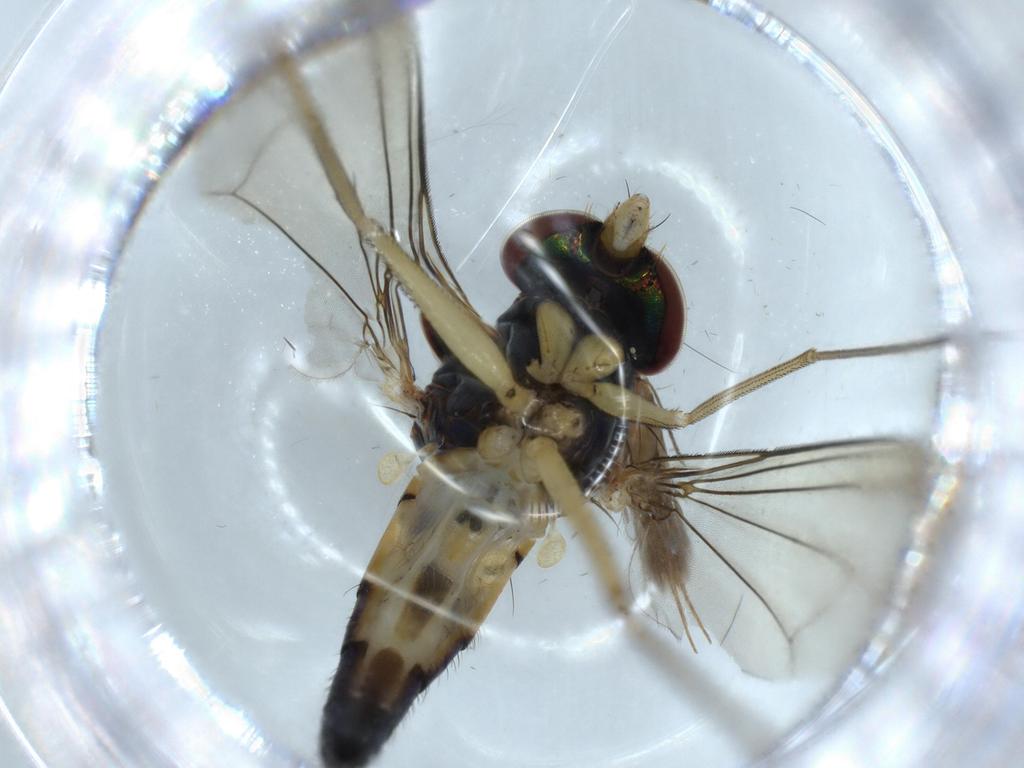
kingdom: Animalia
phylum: Arthropoda
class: Insecta
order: Diptera
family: Dolichopodidae
